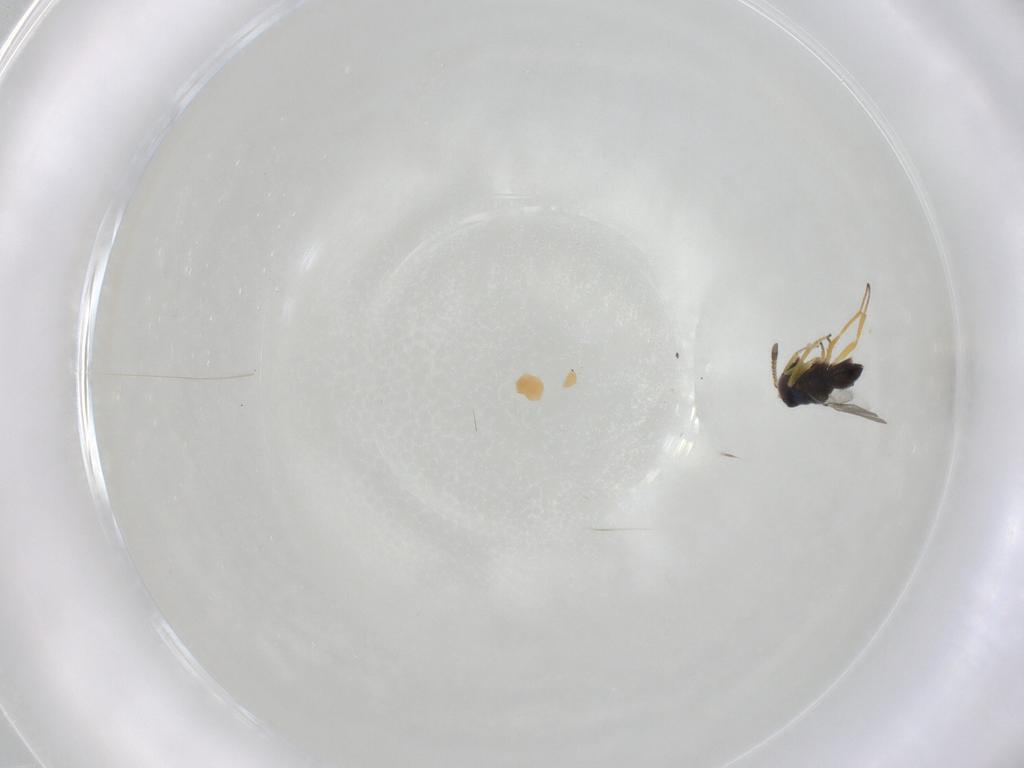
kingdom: Animalia
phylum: Arthropoda
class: Insecta
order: Hymenoptera
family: Encyrtidae
